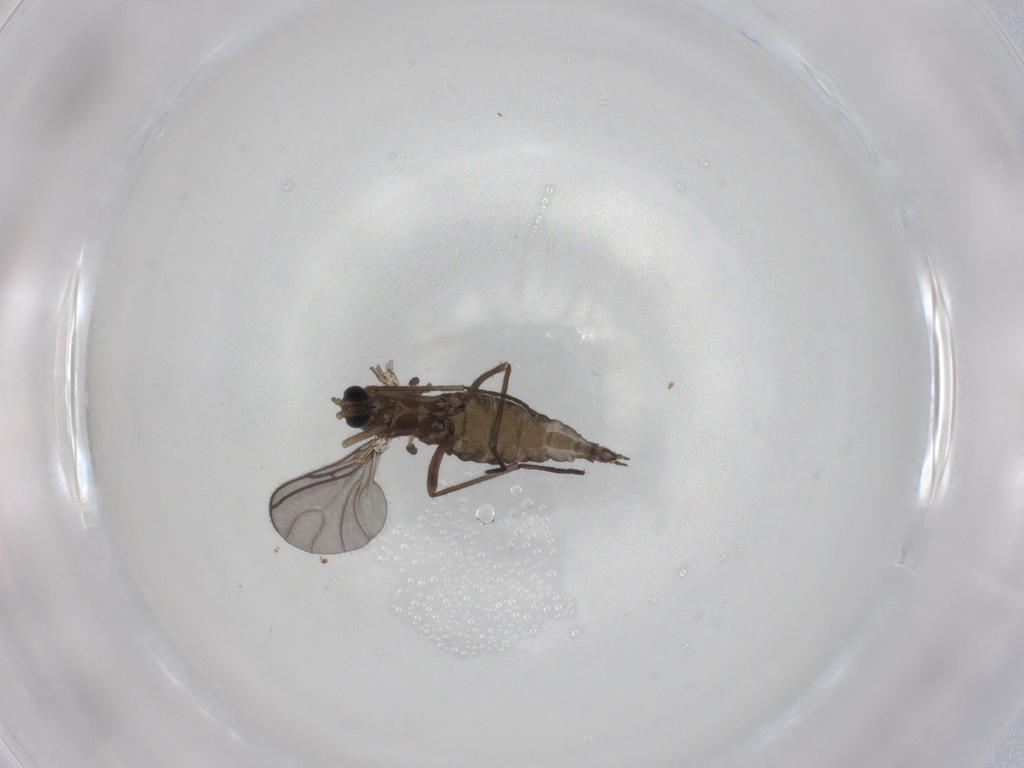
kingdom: Animalia
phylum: Arthropoda
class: Insecta
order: Diptera
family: Sciaridae
